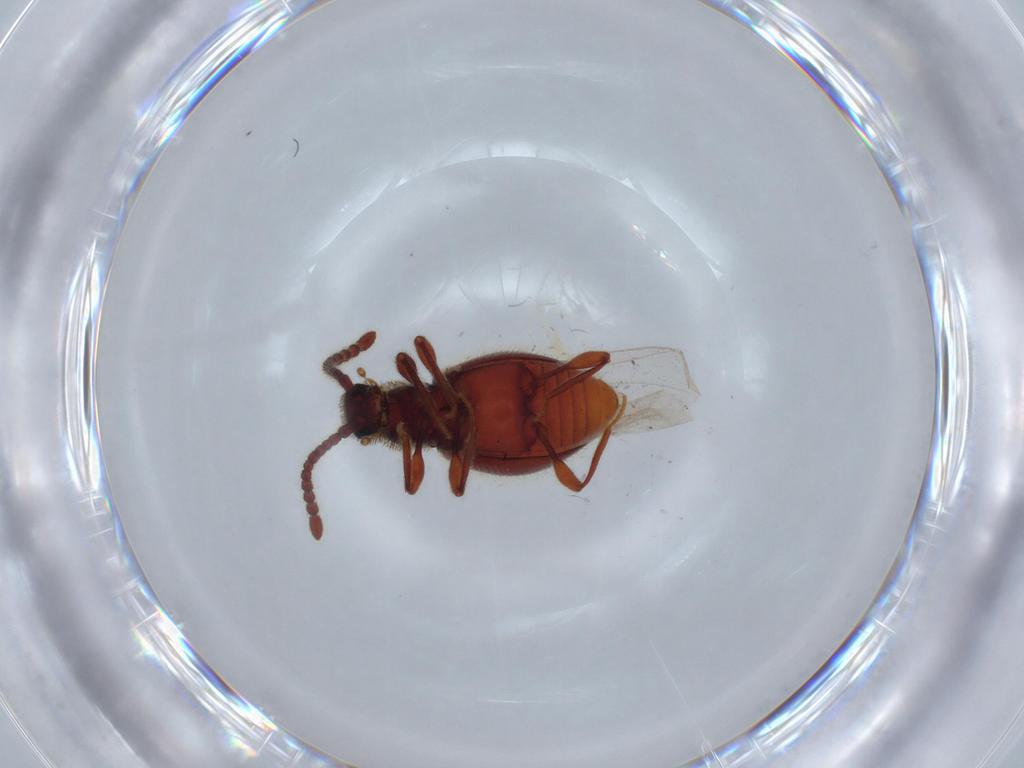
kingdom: Animalia
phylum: Arthropoda
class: Insecta
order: Coleoptera
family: Staphylinidae
